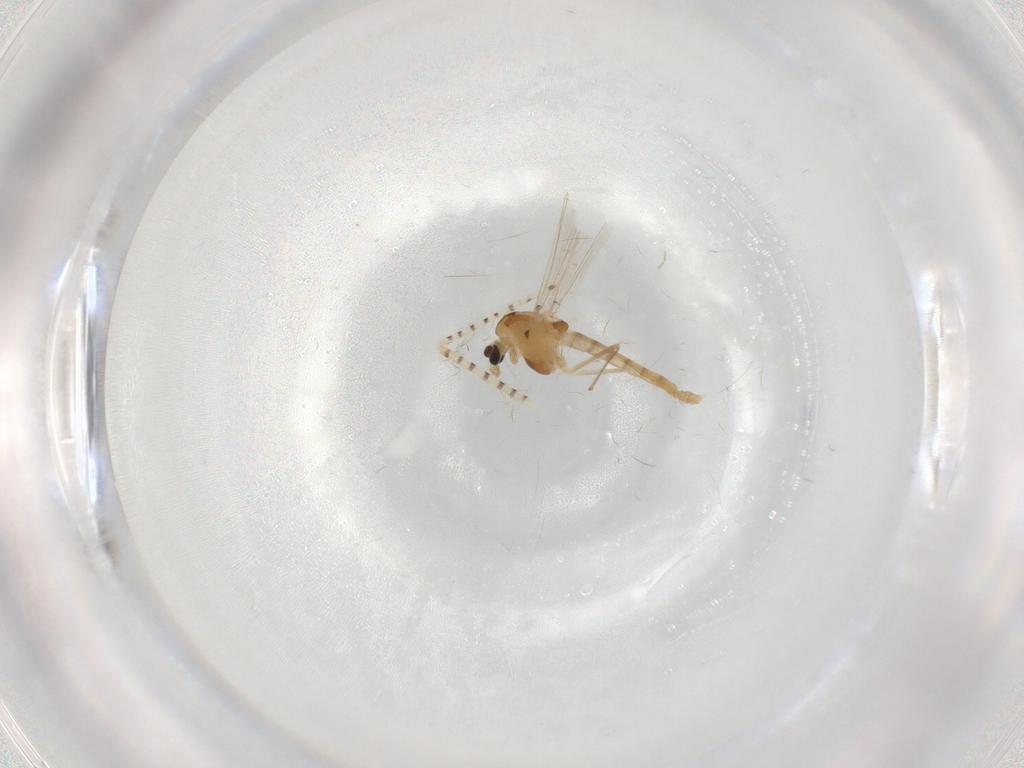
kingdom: Animalia
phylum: Arthropoda
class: Insecta
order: Diptera
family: Chaoboridae
